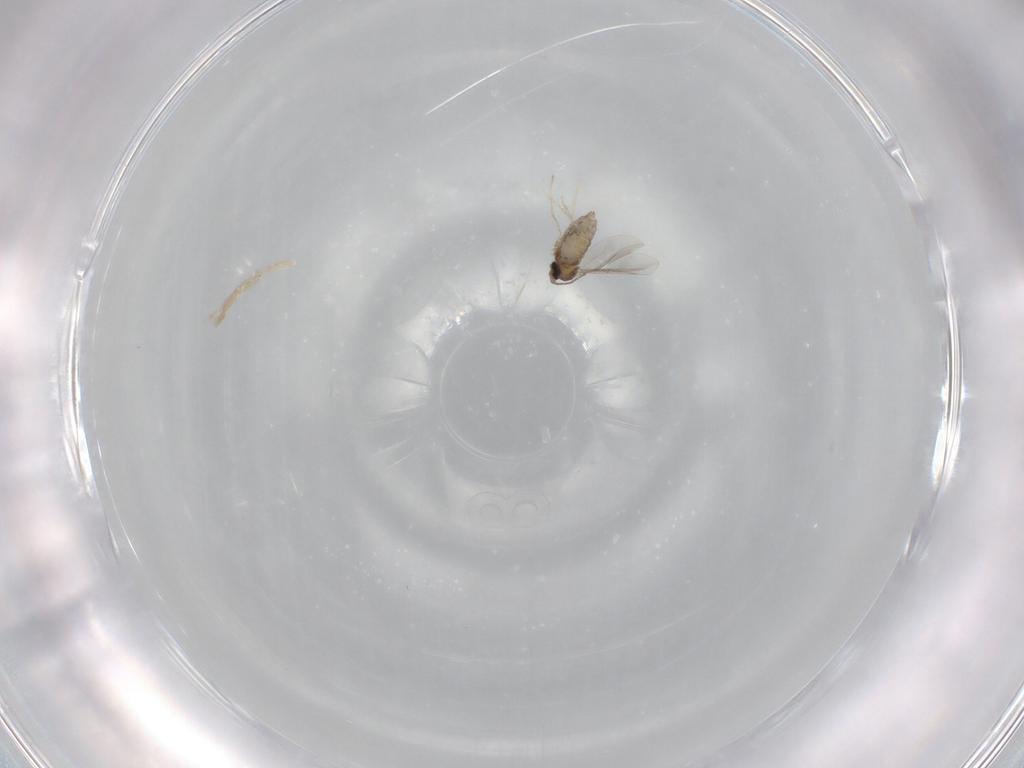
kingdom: Animalia
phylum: Arthropoda
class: Insecta
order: Diptera
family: Cecidomyiidae
